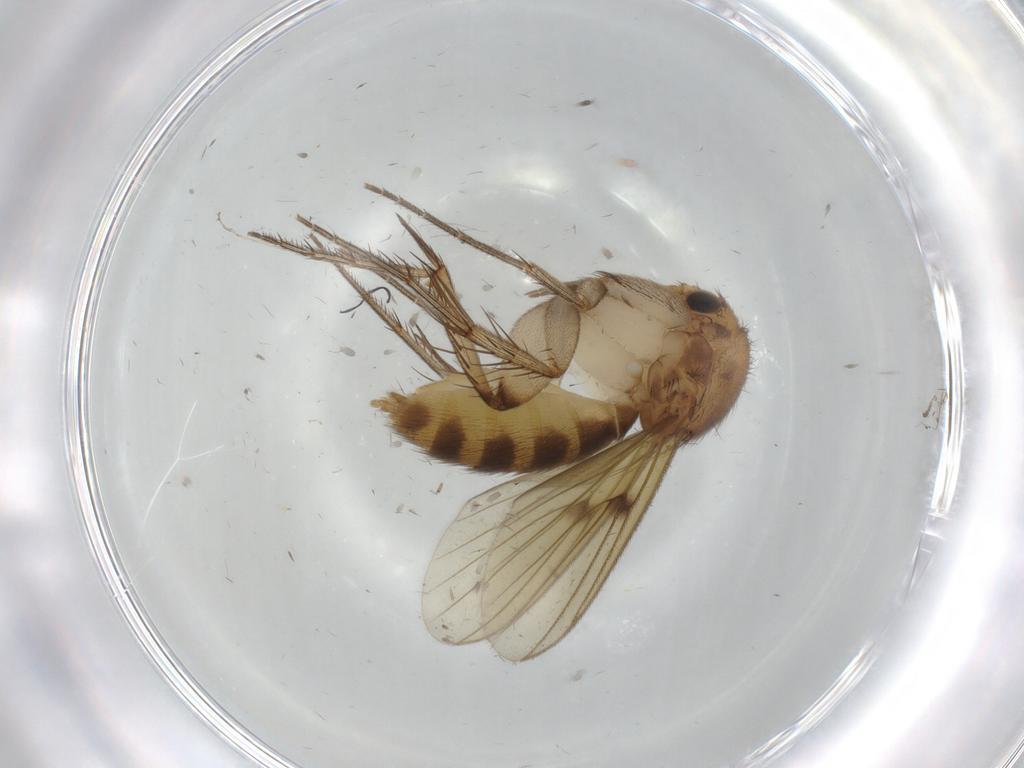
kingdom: Animalia
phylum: Arthropoda
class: Insecta
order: Diptera
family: Mycetophilidae
